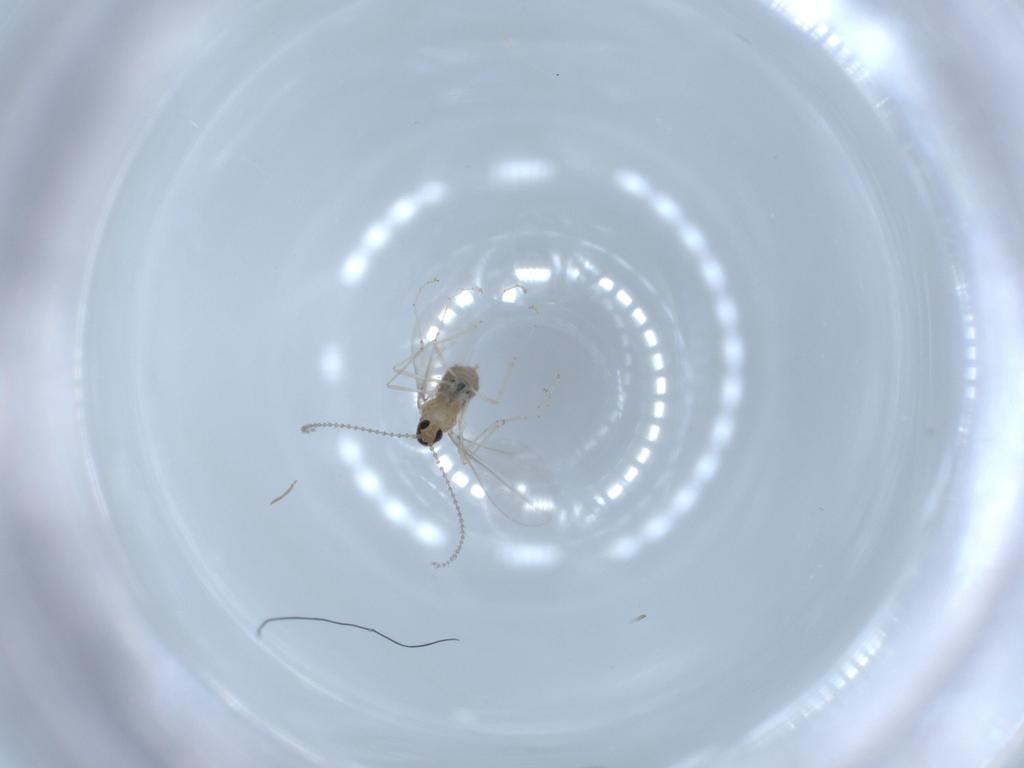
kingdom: Animalia
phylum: Arthropoda
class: Insecta
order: Diptera
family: Cecidomyiidae
